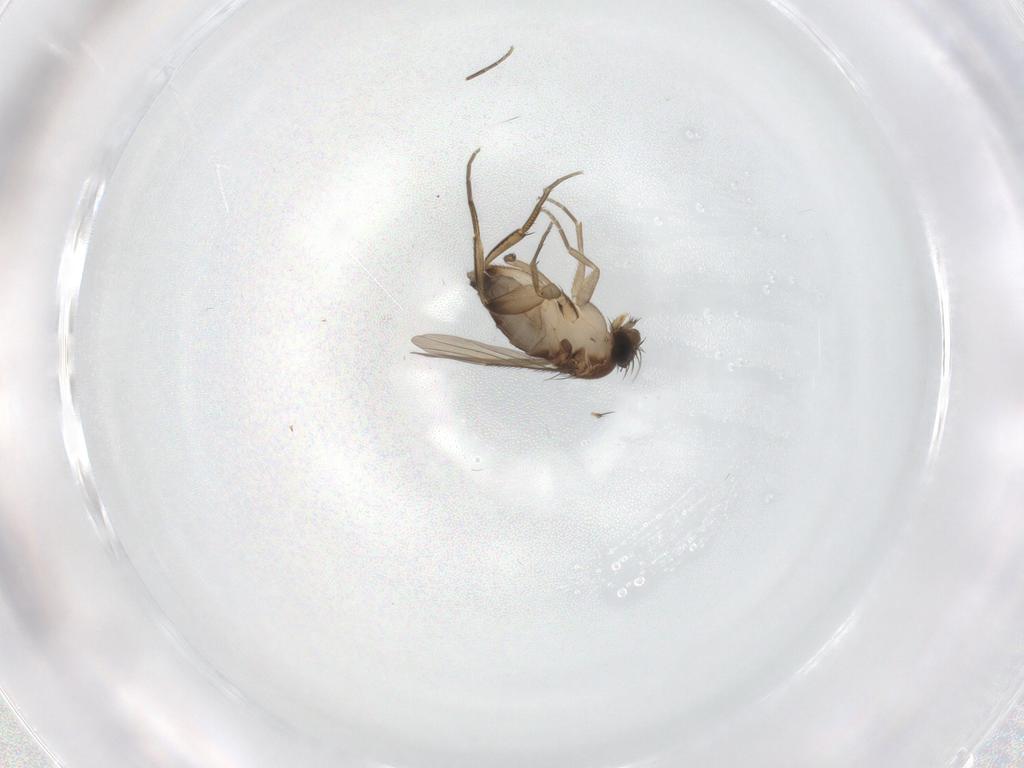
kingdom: Animalia
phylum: Arthropoda
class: Insecta
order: Diptera
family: Phoridae
